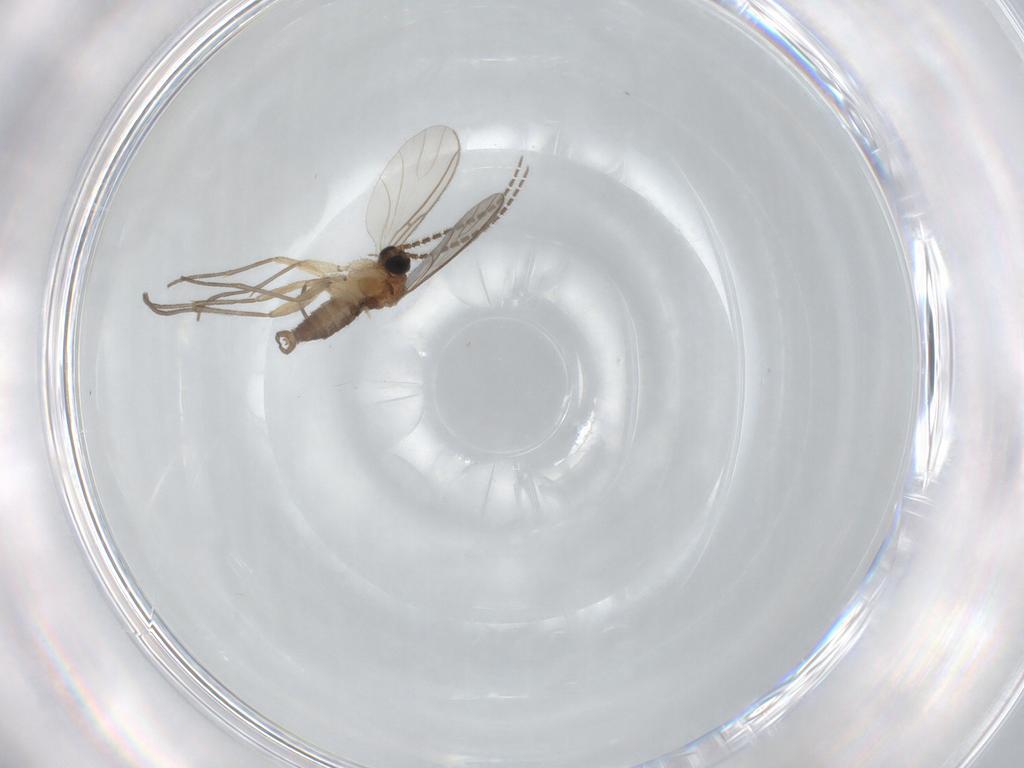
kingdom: Animalia
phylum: Arthropoda
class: Insecta
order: Diptera
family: Sciaridae
